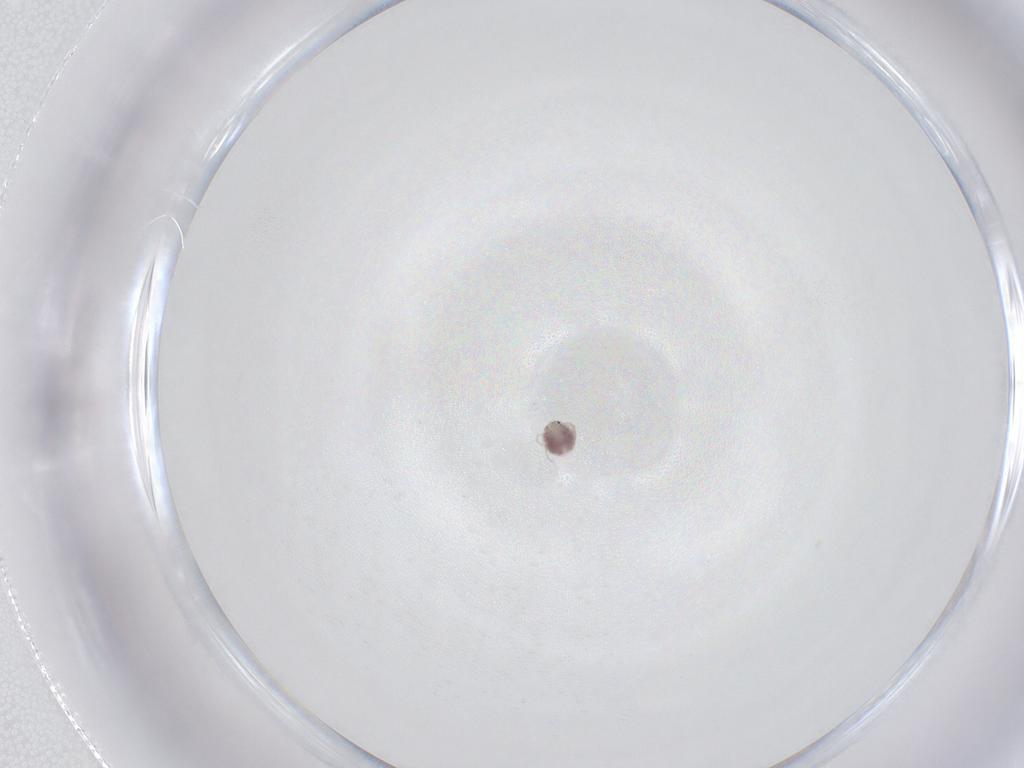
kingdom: Animalia
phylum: Arthropoda
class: Arachnida
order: Trombidiformes
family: Pionidae
